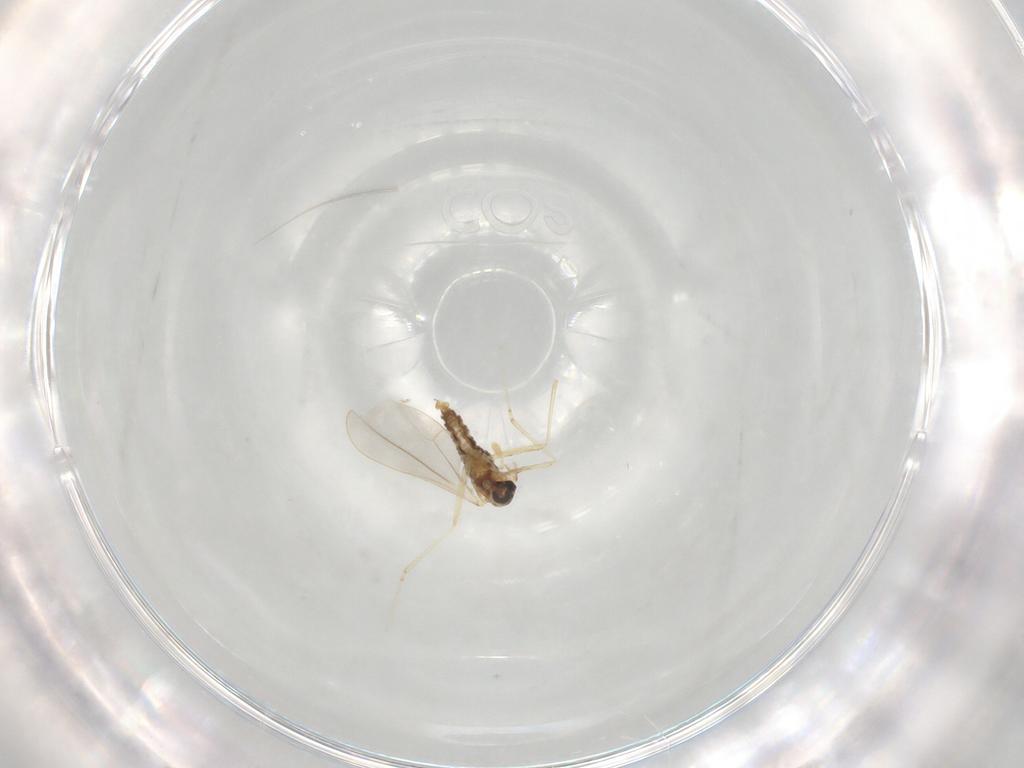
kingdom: Animalia
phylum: Arthropoda
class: Insecta
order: Diptera
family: Cecidomyiidae
